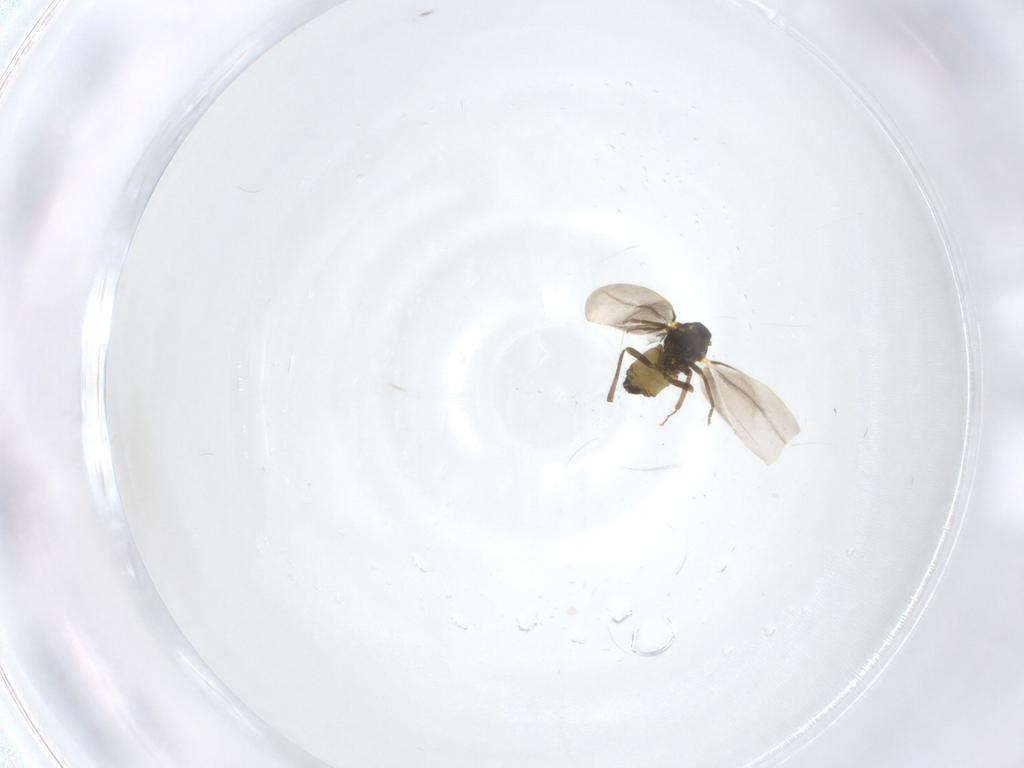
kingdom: Animalia
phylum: Arthropoda
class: Insecta
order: Hemiptera
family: Aleyrodidae
